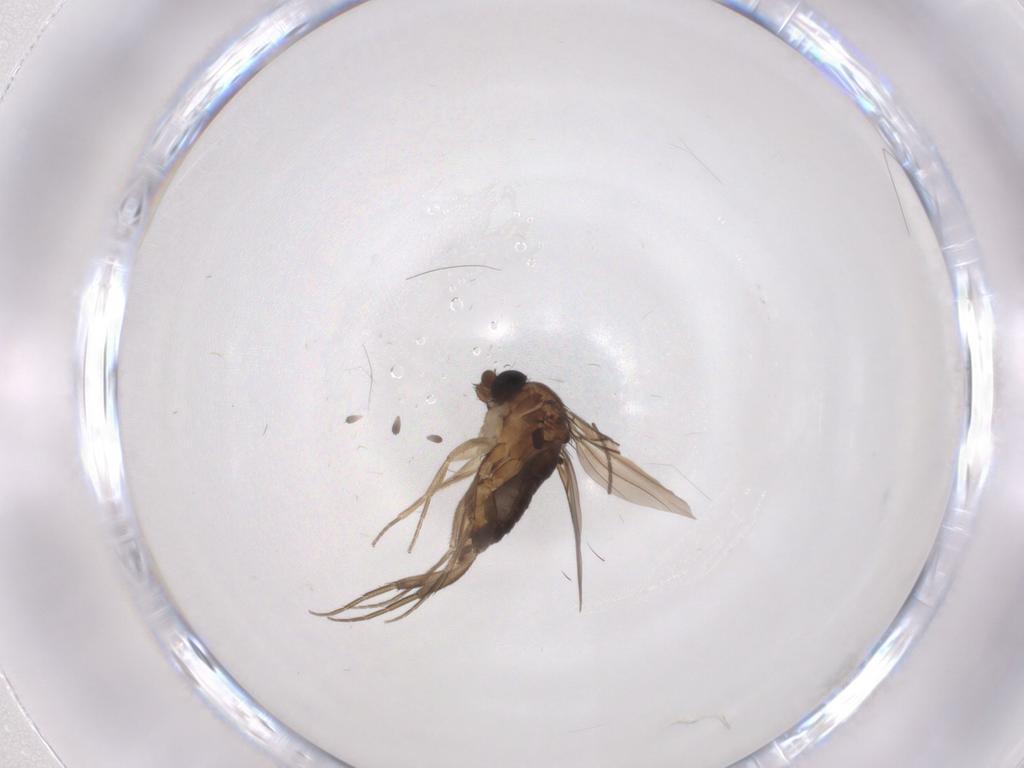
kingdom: Animalia
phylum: Arthropoda
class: Insecta
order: Diptera
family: Sciaridae
